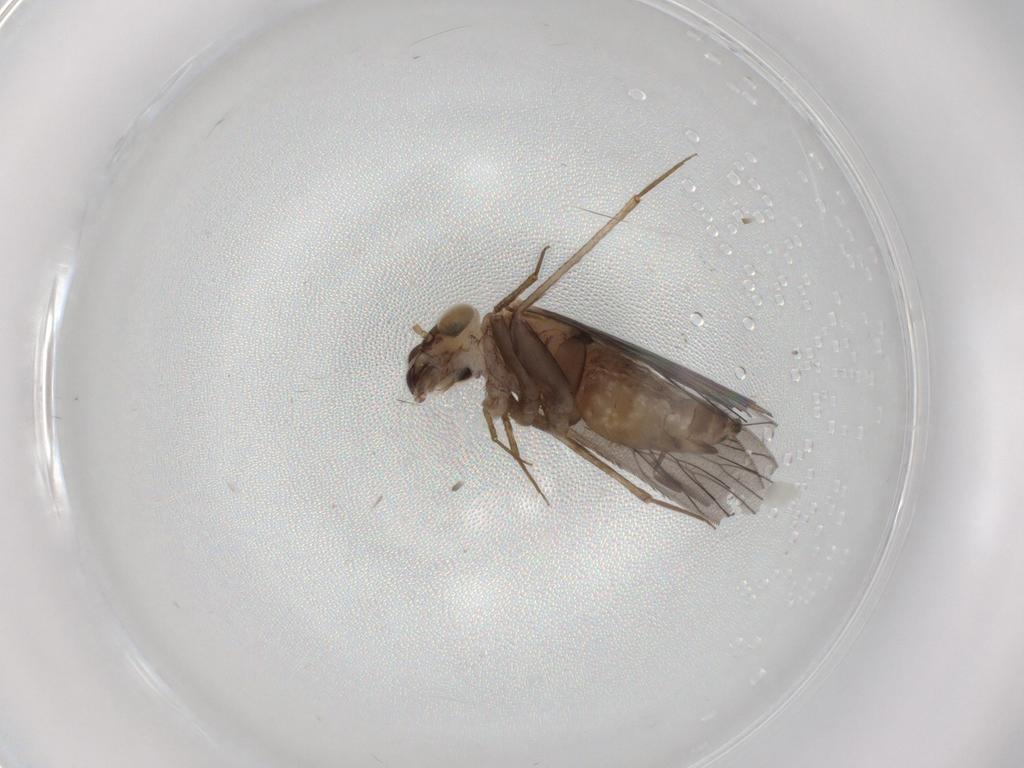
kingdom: Animalia
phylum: Arthropoda
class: Insecta
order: Psocodea
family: Lepidopsocidae
